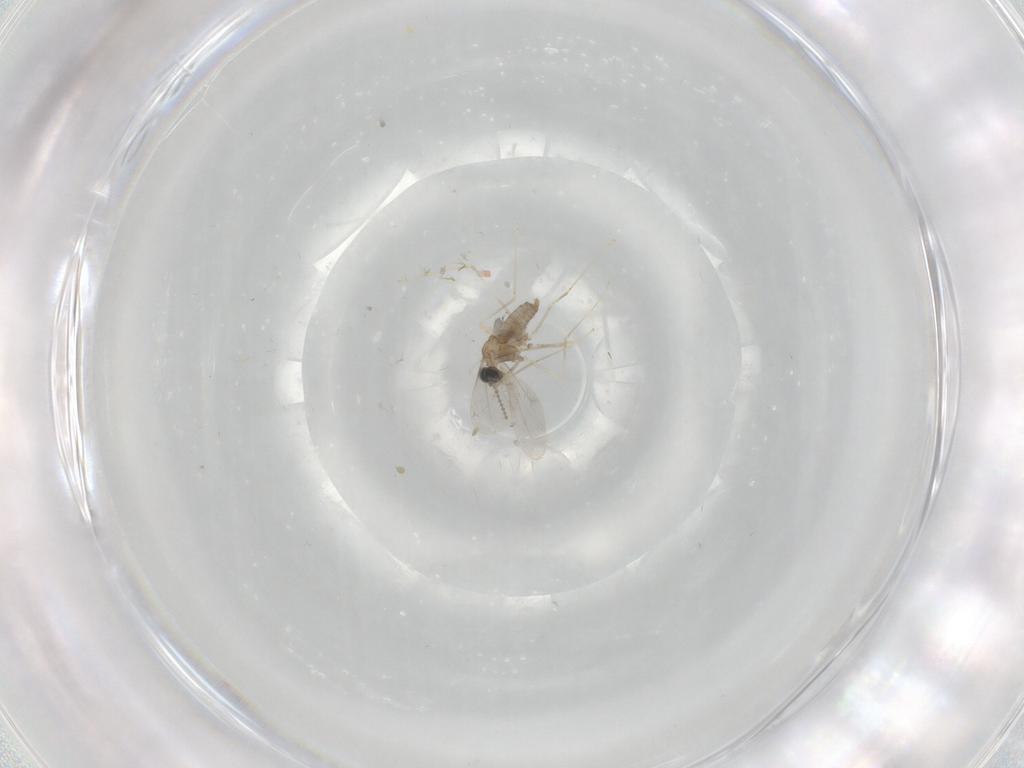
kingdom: Animalia
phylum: Arthropoda
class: Insecta
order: Diptera
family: Cecidomyiidae
